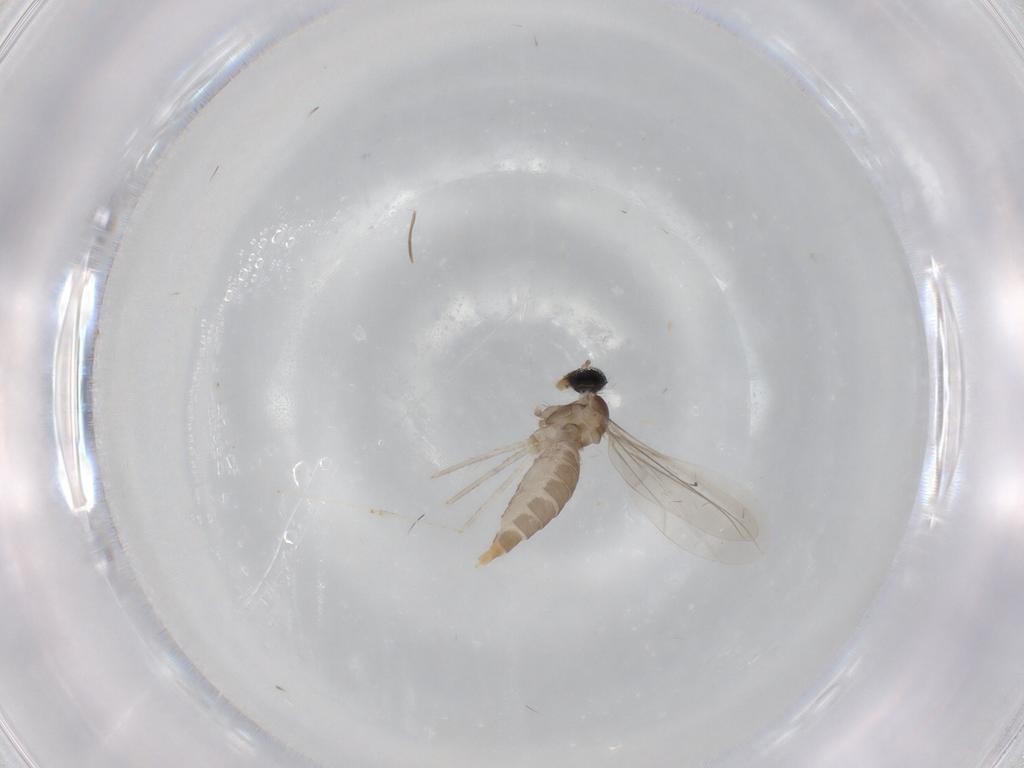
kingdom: Animalia
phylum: Arthropoda
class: Insecta
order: Diptera
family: Cecidomyiidae
